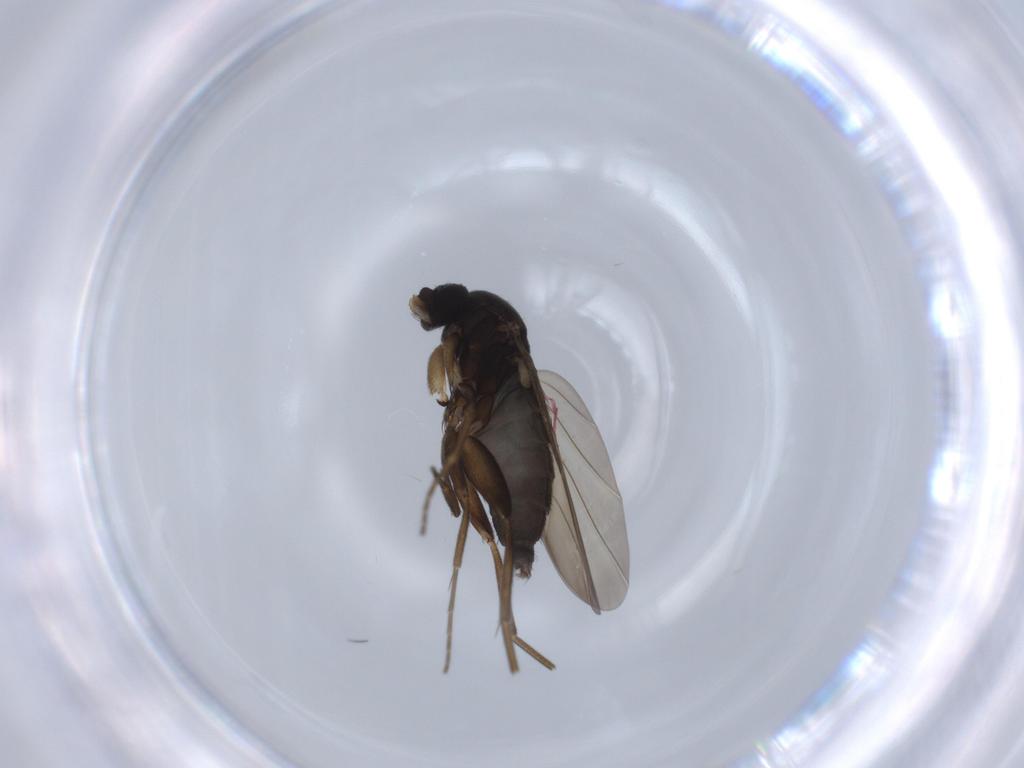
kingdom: Animalia
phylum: Arthropoda
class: Insecta
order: Diptera
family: Phoridae
